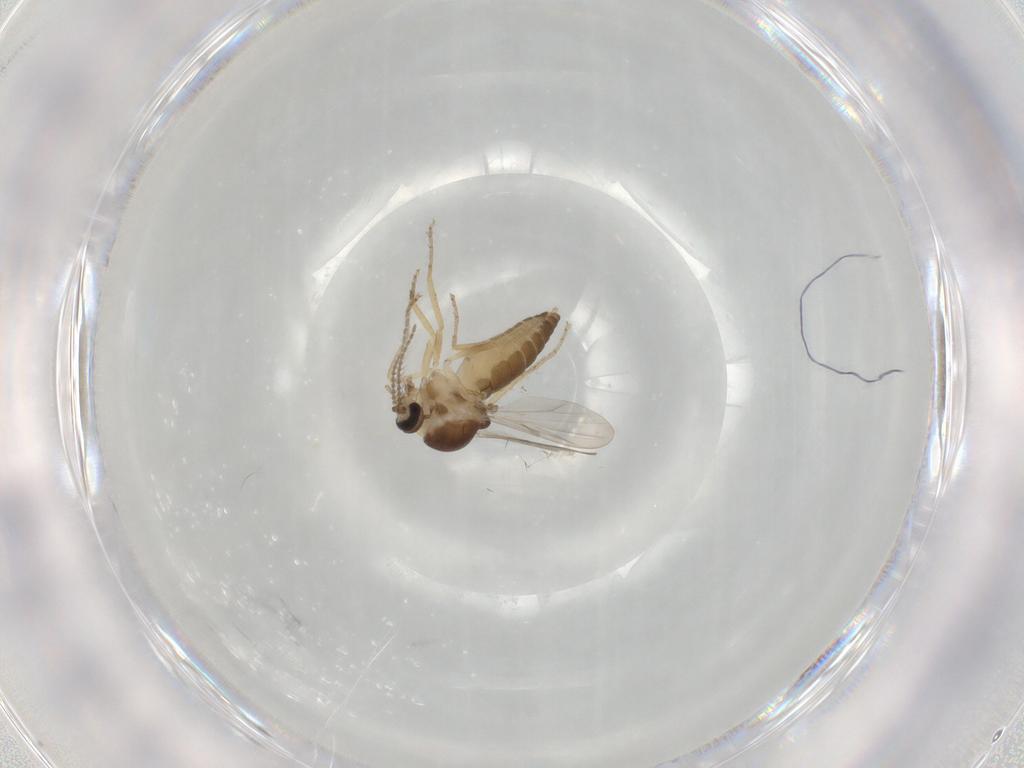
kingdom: Animalia
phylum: Arthropoda
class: Insecta
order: Diptera
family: Ceratopogonidae
